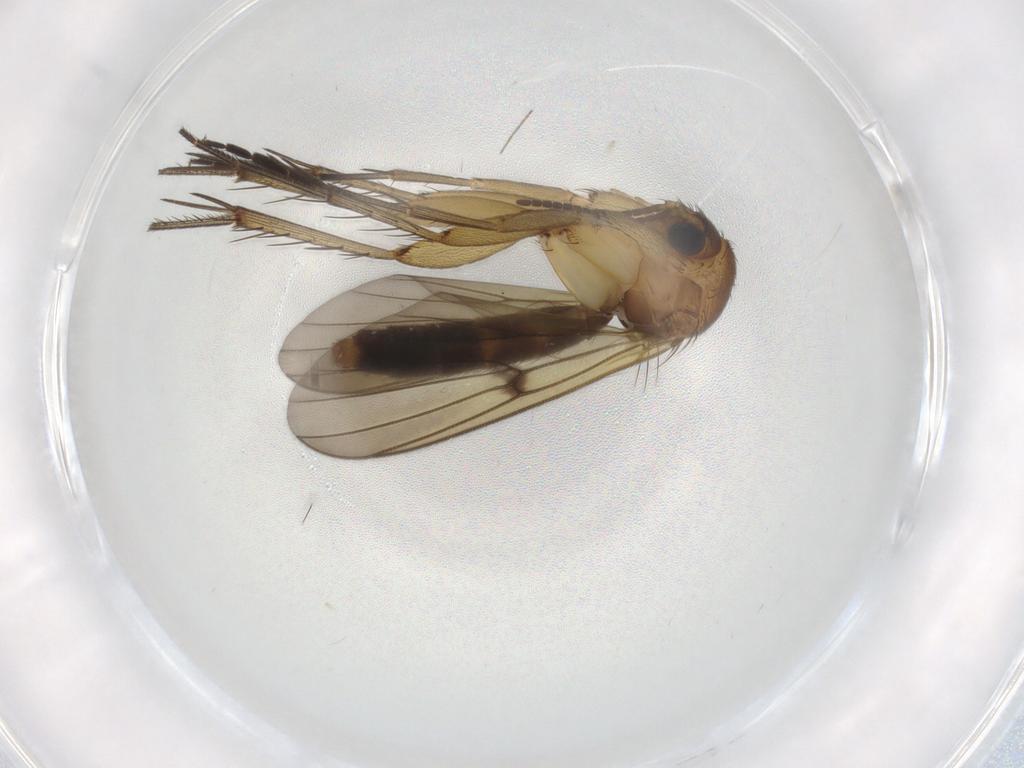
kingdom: Animalia
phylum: Arthropoda
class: Insecta
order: Diptera
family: Mycetophilidae
